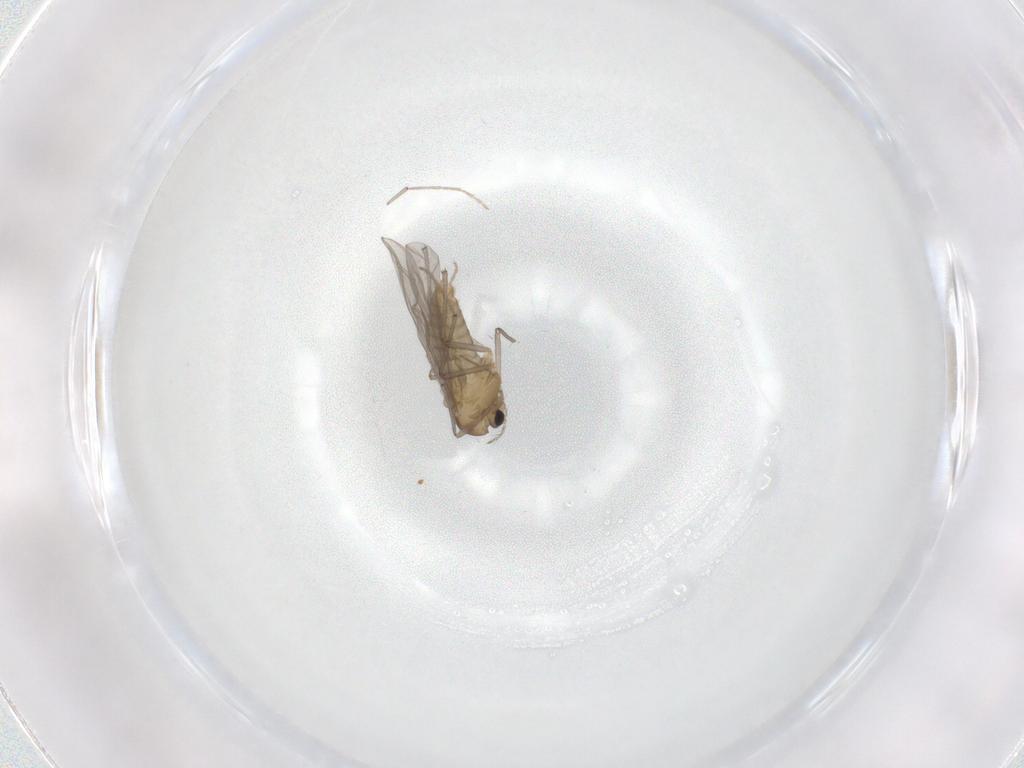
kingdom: Animalia
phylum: Arthropoda
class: Insecta
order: Diptera
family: Chironomidae
